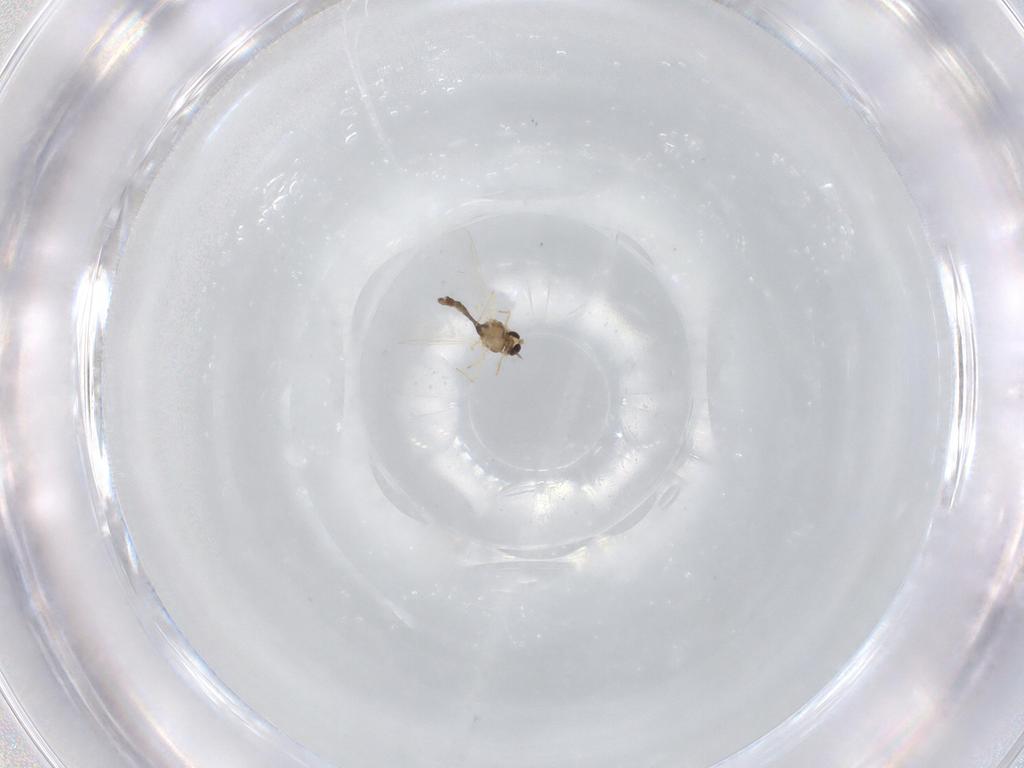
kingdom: Animalia
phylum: Arthropoda
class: Insecta
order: Diptera
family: Chironomidae
